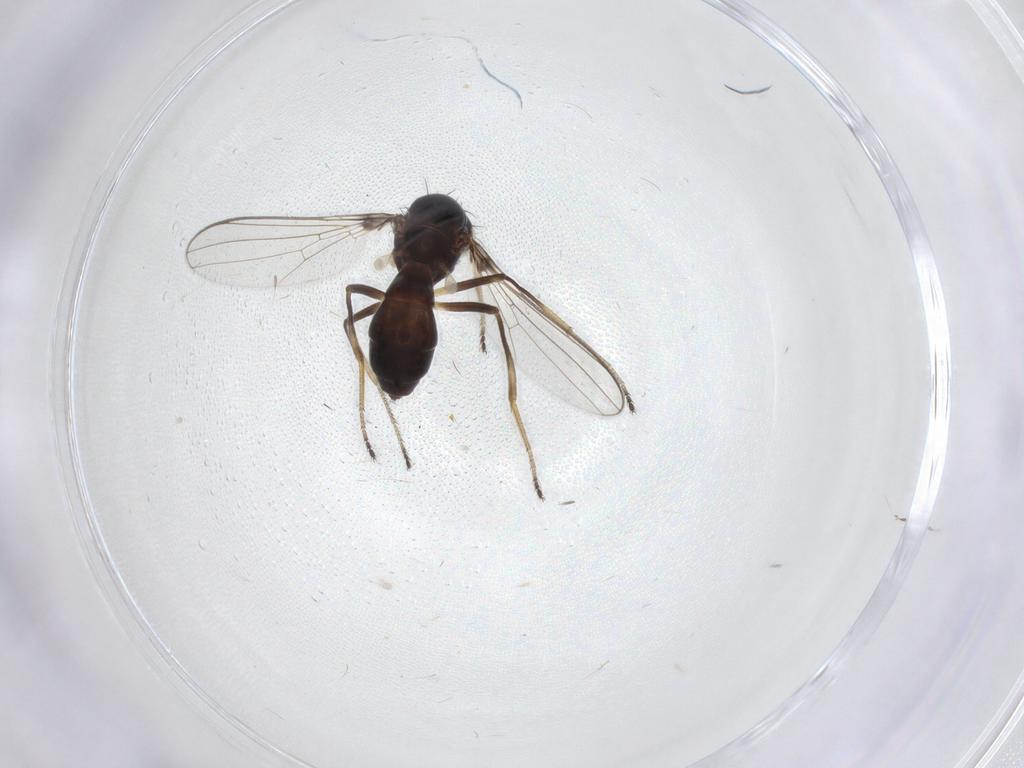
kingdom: Animalia
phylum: Arthropoda
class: Insecta
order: Diptera
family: Sepsidae
